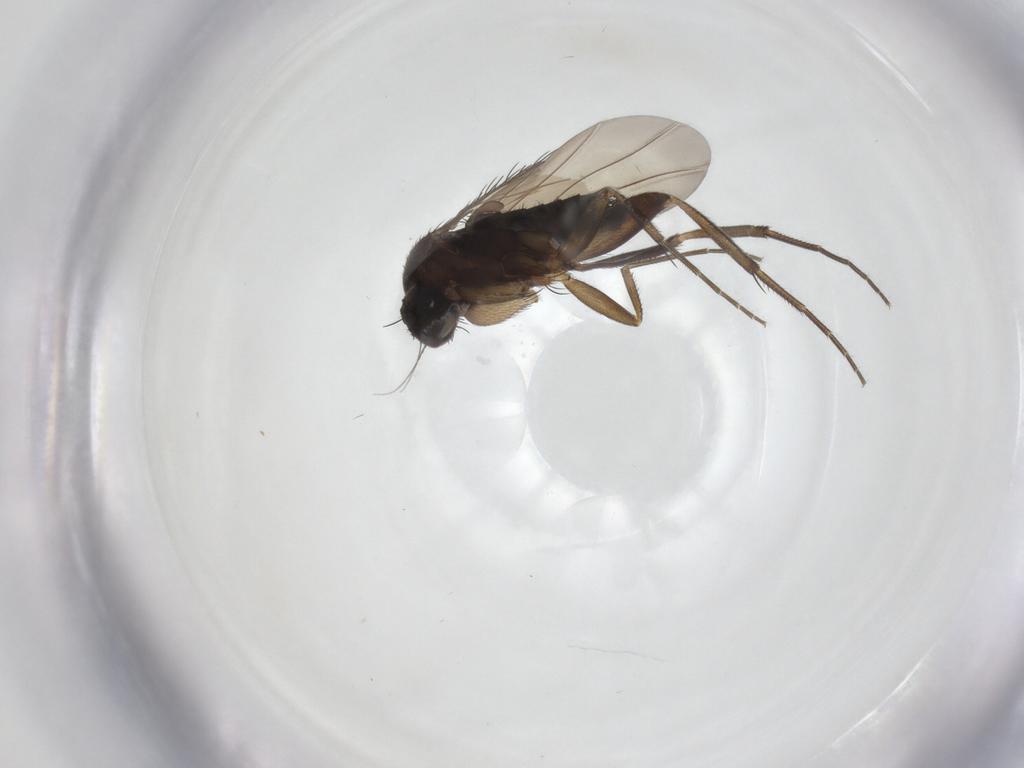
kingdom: Animalia
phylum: Arthropoda
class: Insecta
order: Diptera
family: Phoridae
